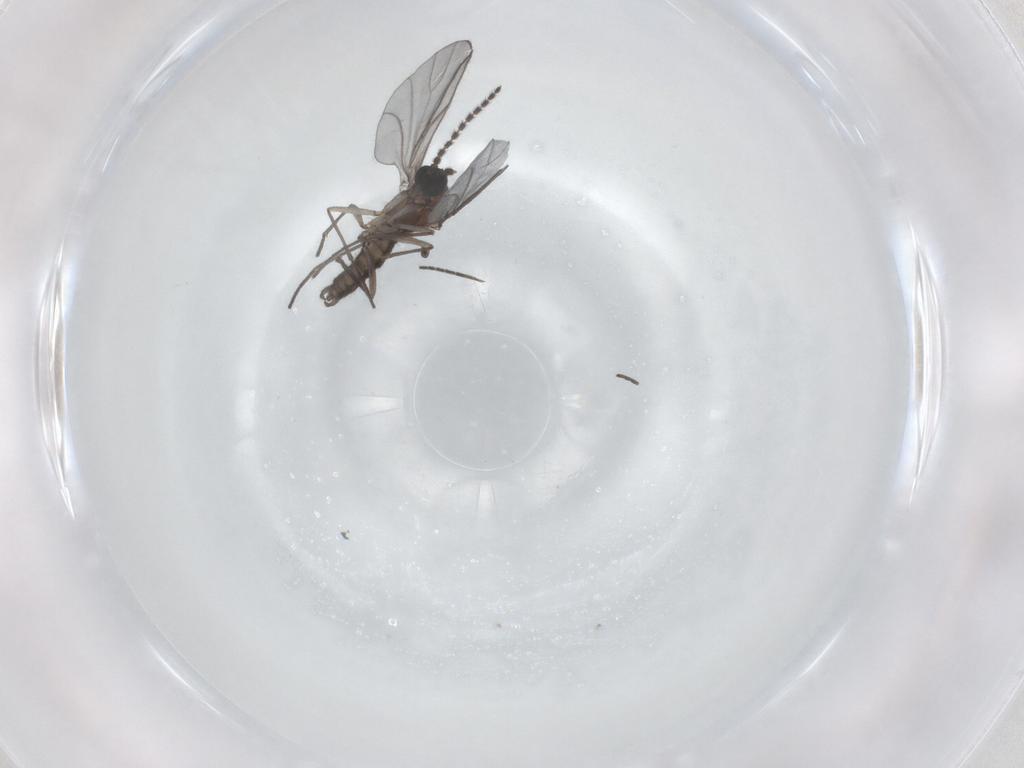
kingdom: Animalia
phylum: Arthropoda
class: Insecta
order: Diptera
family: Sciaridae
